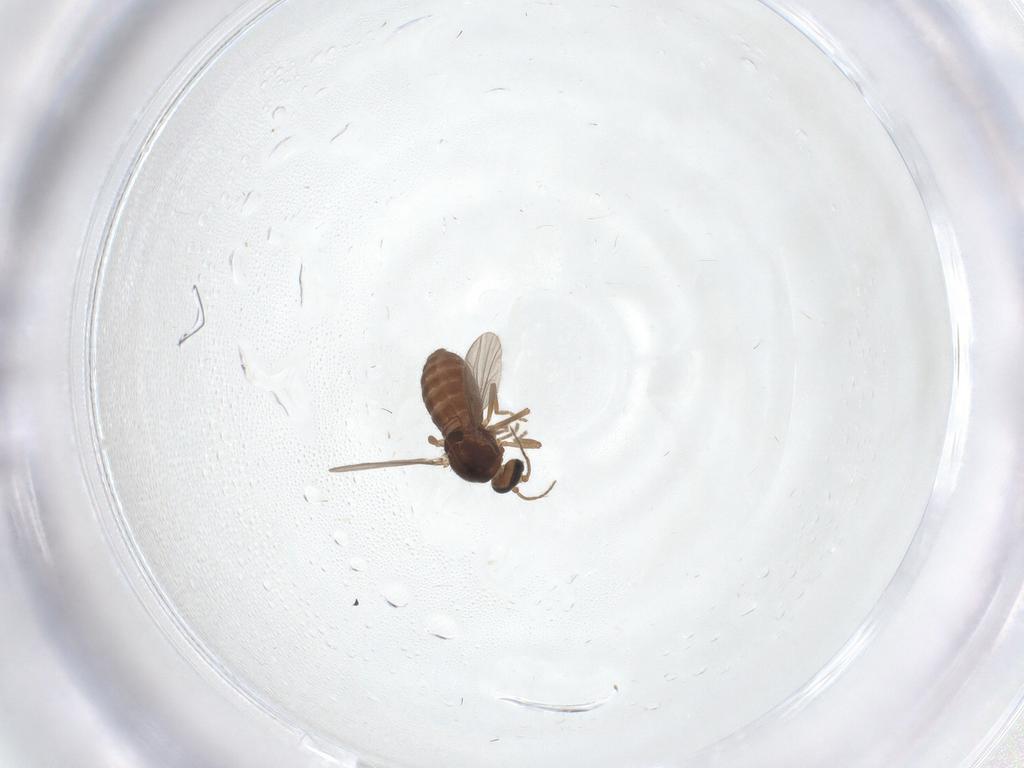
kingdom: Animalia
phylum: Arthropoda
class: Insecta
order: Diptera
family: Ceratopogonidae
